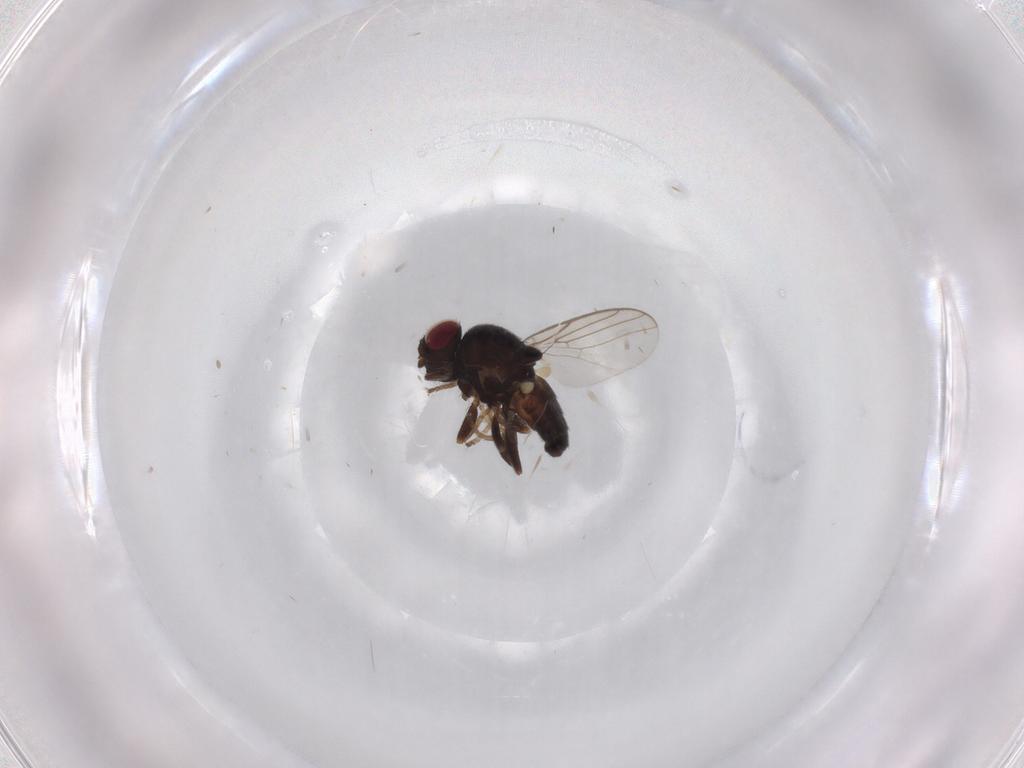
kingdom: Animalia
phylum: Arthropoda
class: Insecta
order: Diptera
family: Chloropidae
